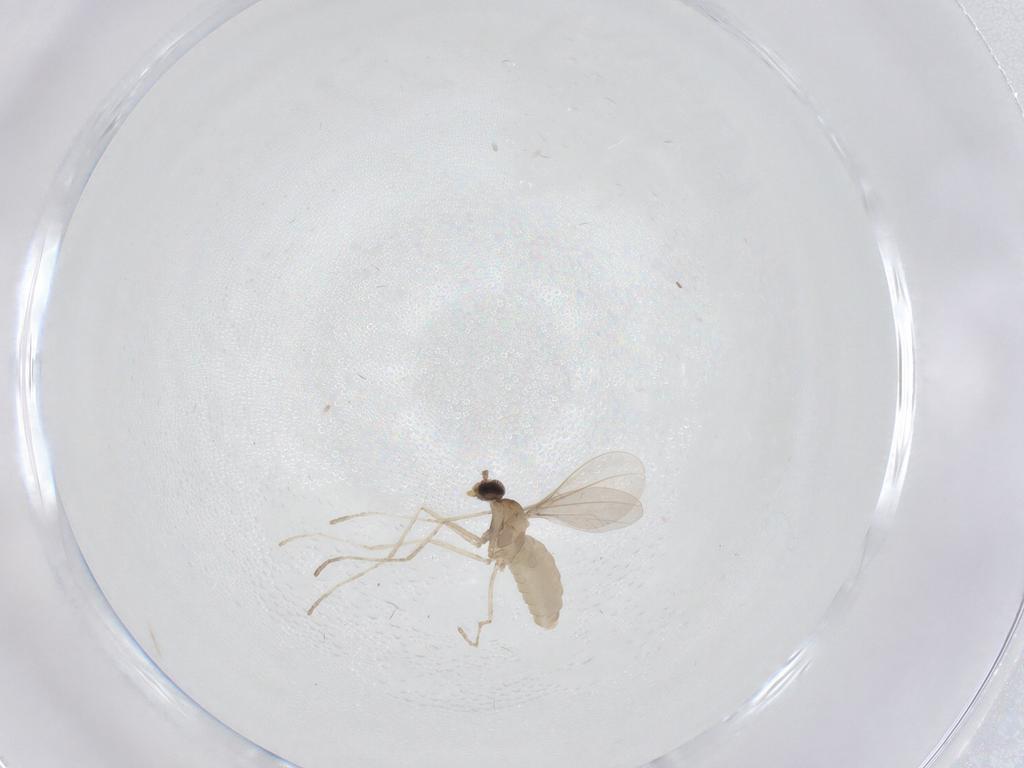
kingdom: Animalia
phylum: Arthropoda
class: Insecta
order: Diptera
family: Cecidomyiidae
